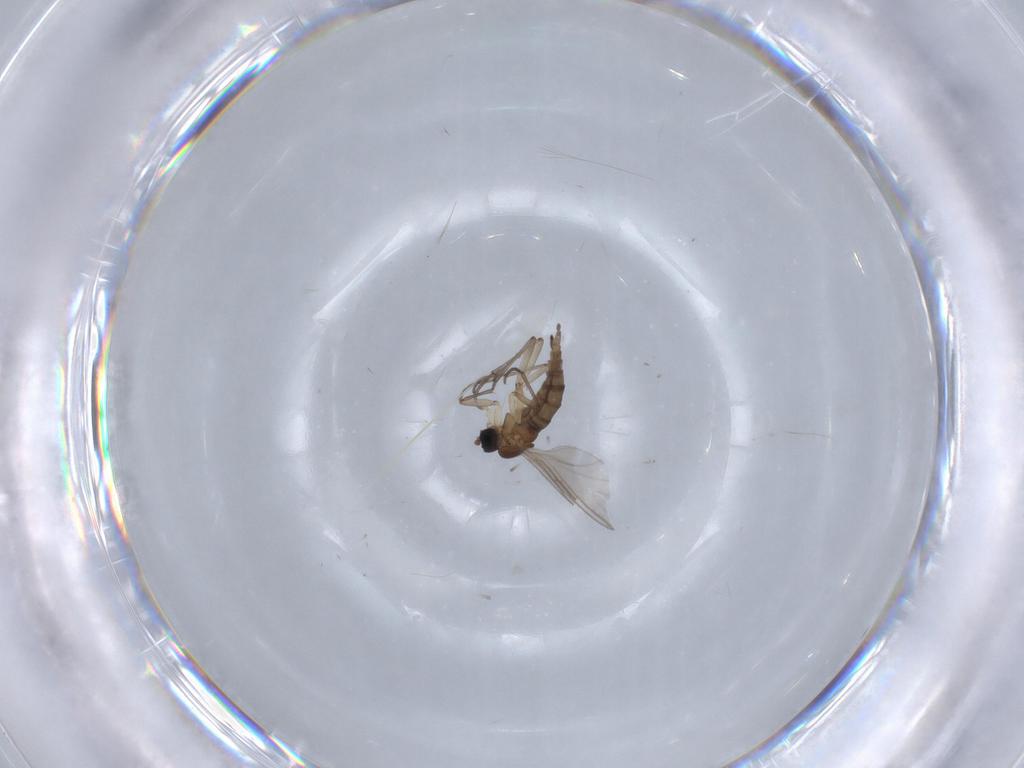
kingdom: Animalia
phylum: Arthropoda
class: Insecta
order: Diptera
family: Sciaridae
